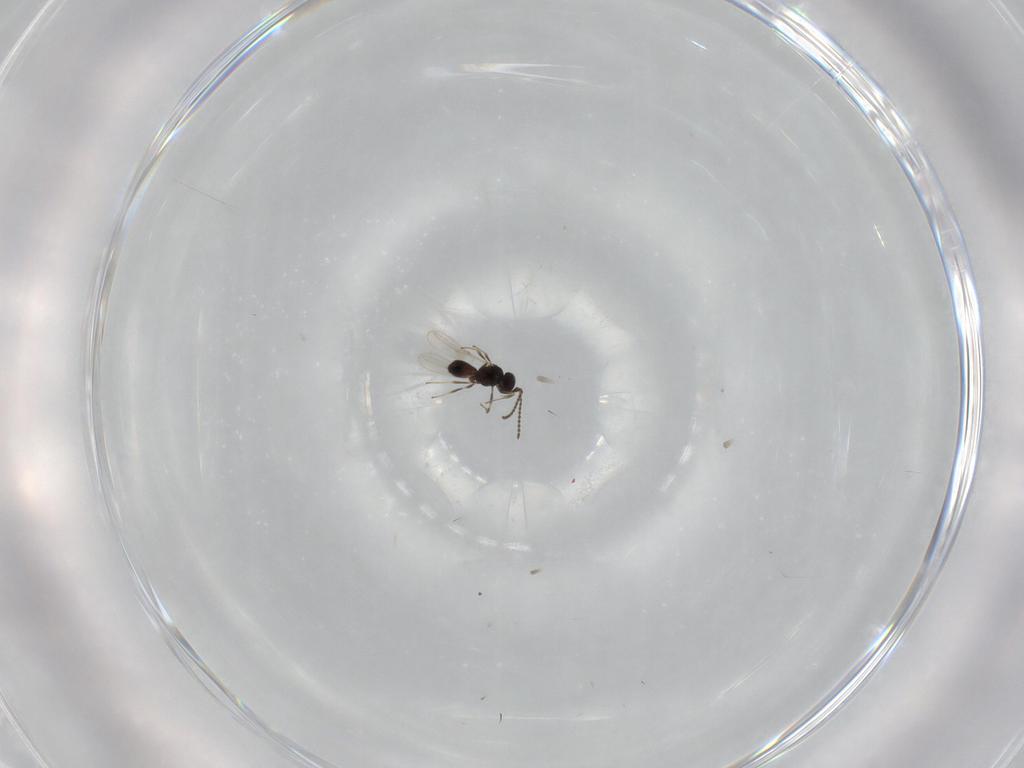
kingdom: Animalia
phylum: Arthropoda
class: Insecta
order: Hymenoptera
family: Scelionidae
